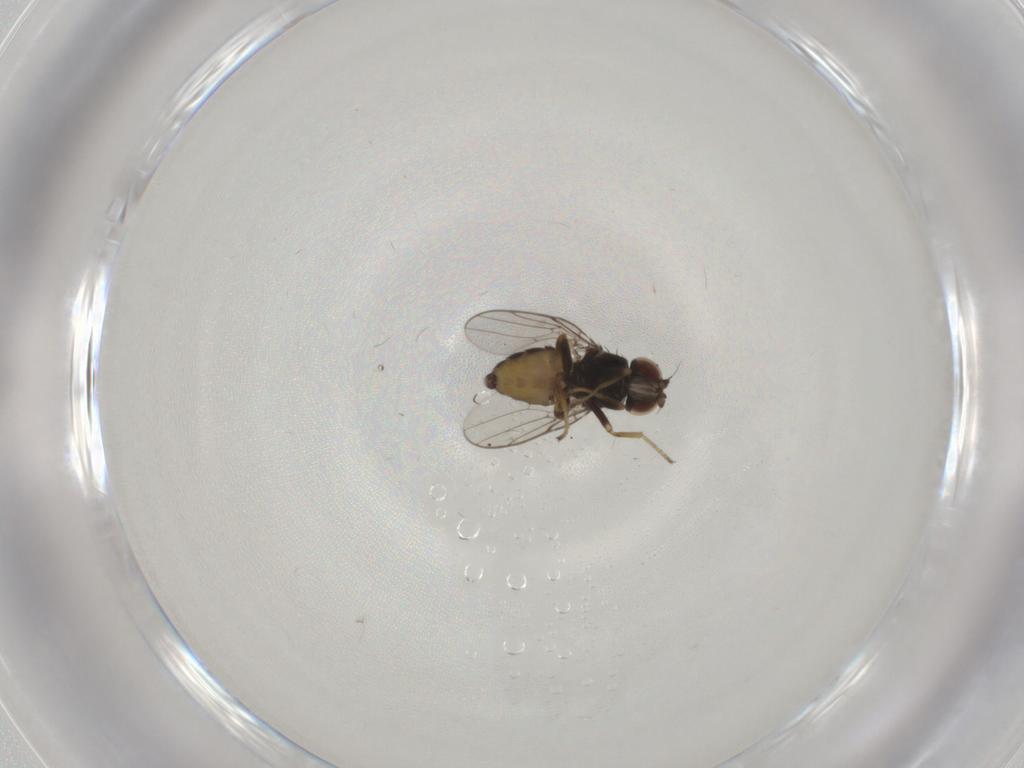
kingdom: Animalia
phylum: Arthropoda
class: Insecta
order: Diptera
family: Chloropidae
